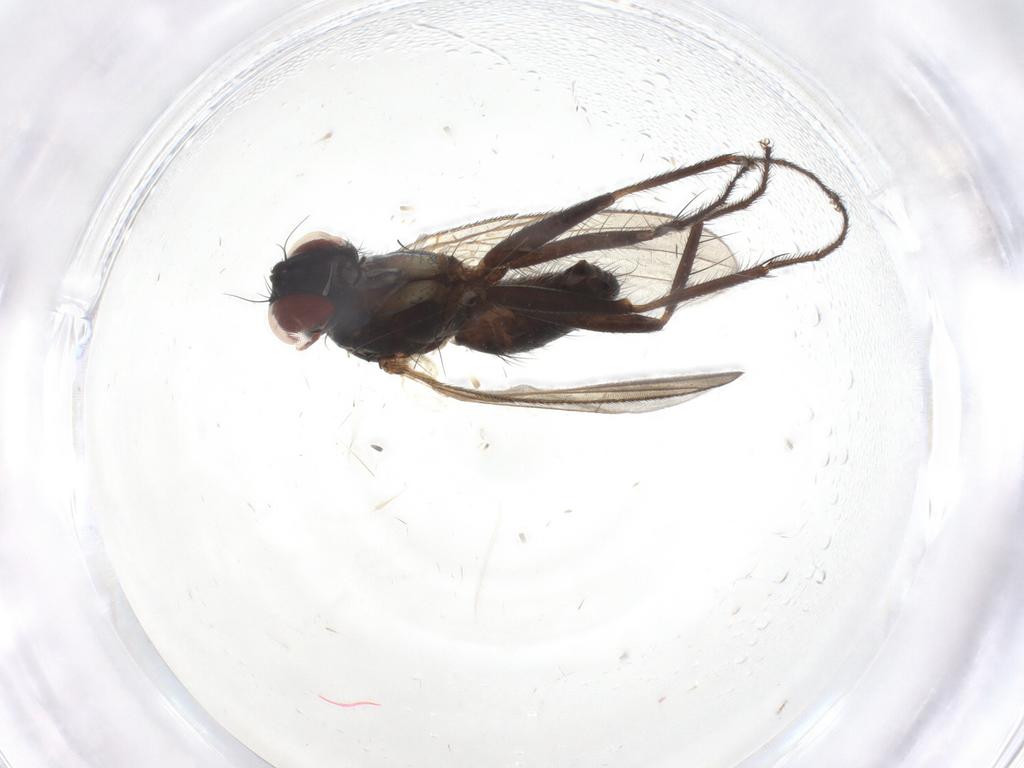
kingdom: Animalia
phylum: Arthropoda
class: Insecta
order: Diptera
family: Muscidae
